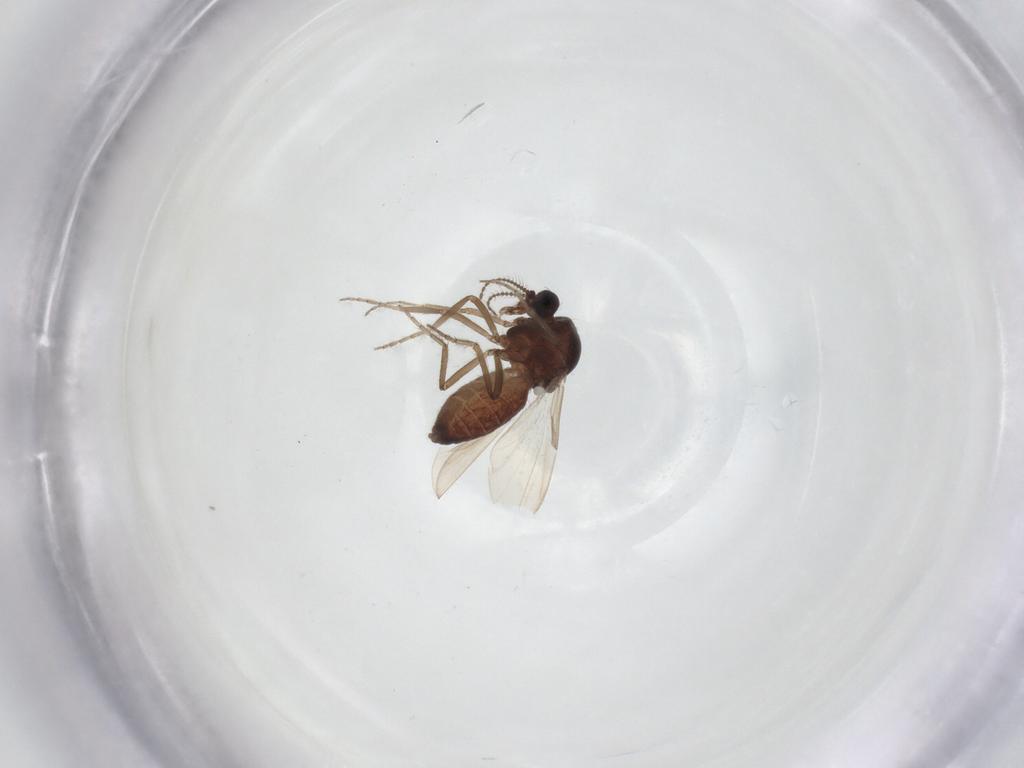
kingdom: Animalia
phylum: Arthropoda
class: Insecta
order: Diptera
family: Ceratopogonidae
